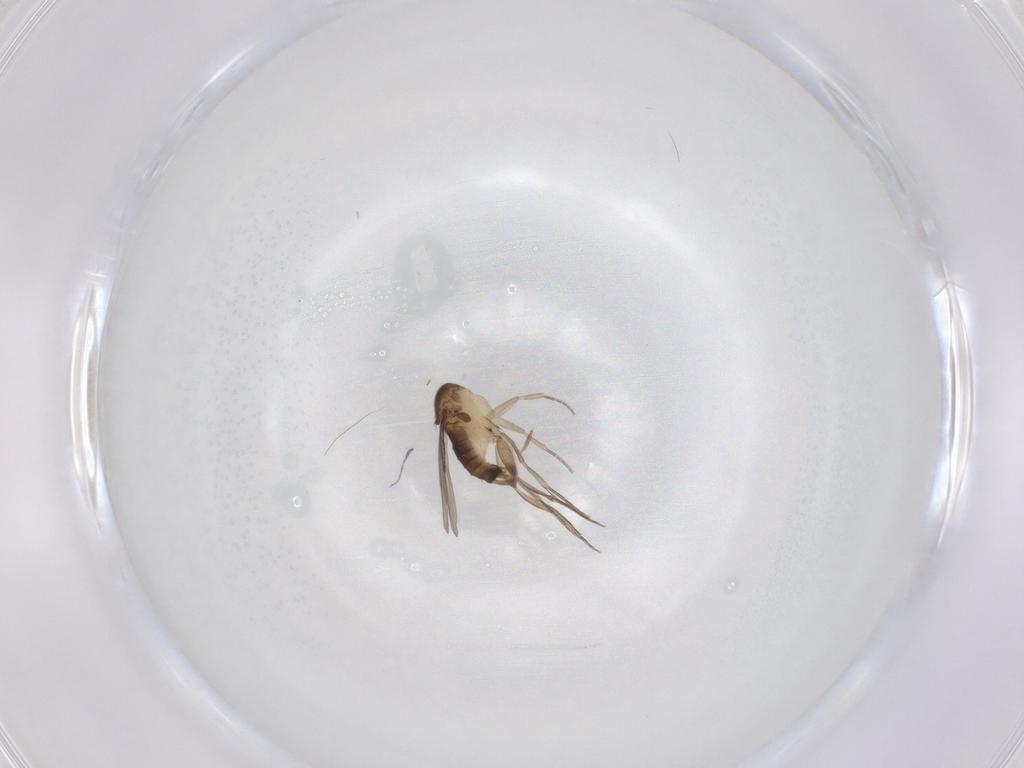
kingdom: Animalia
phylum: Arthropoda
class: Insecta
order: Diptera
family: Phoridae
